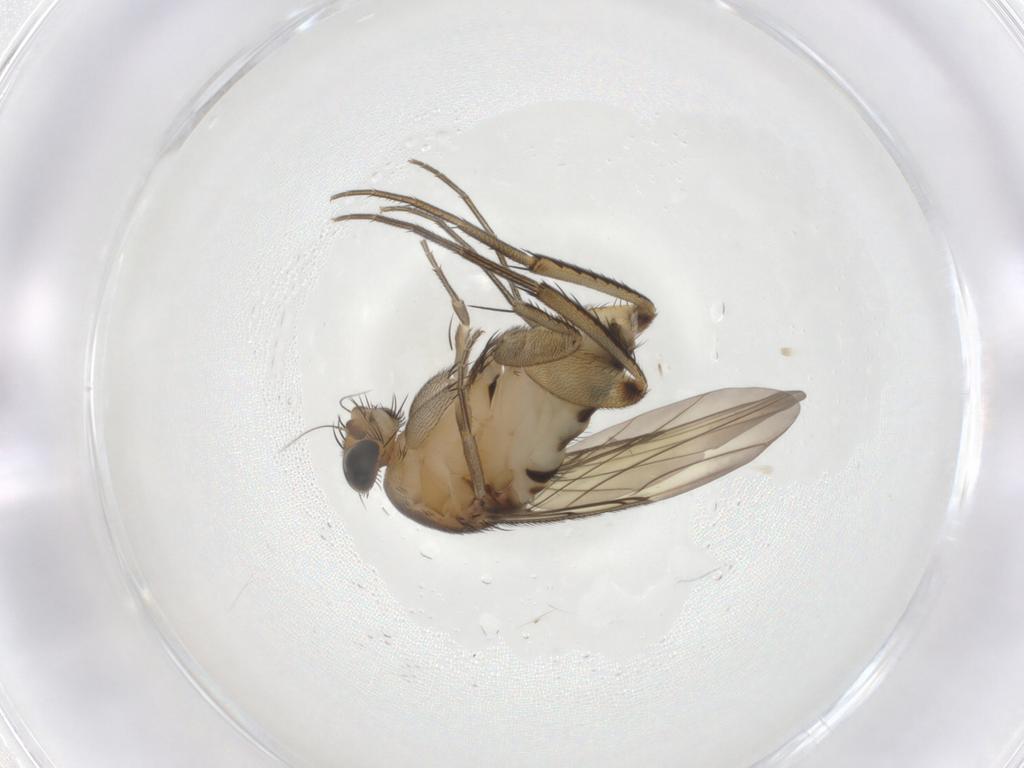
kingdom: Animalia
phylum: Arthropoda
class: Insecta
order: Diptera
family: Phoridae
